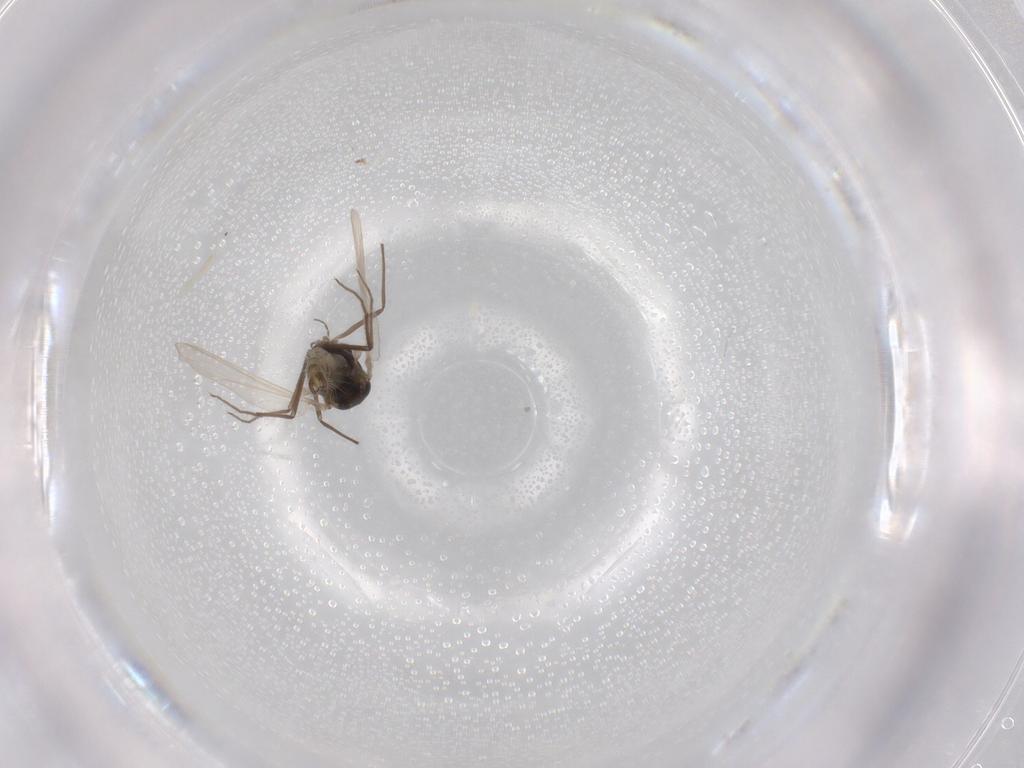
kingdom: Animalia
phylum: Arthropoda
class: Insecta
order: Diptera
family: Chironomidae
